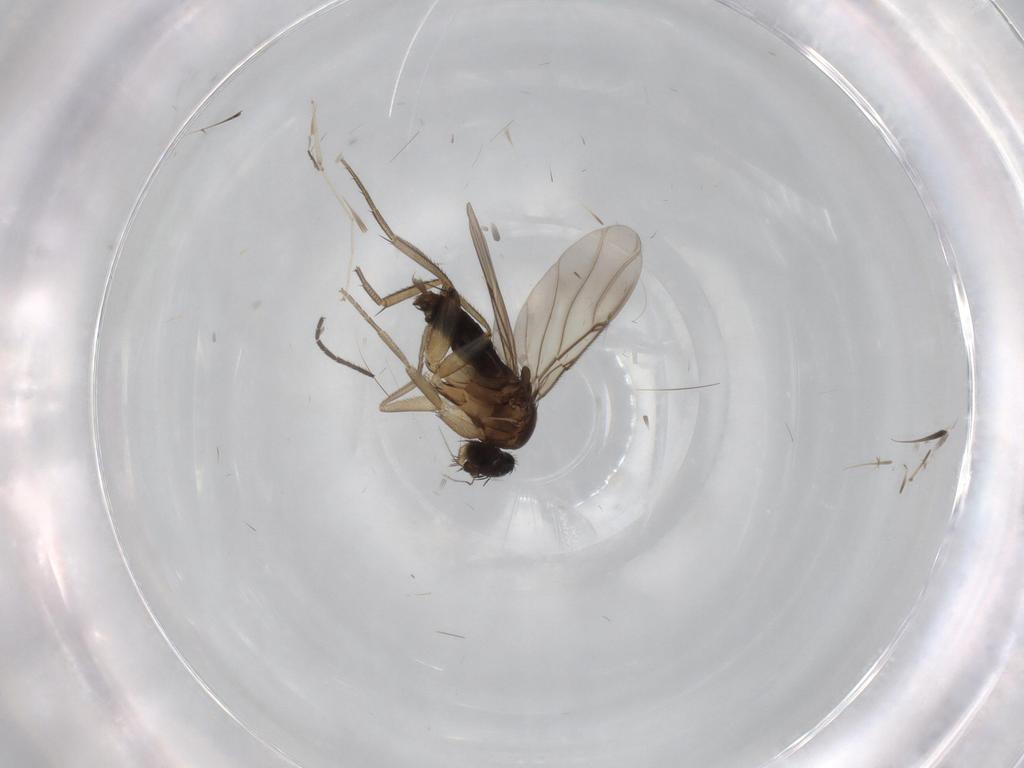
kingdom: Animalia
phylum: Arthropoda
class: Insecta
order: Diptera
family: Phoridae
